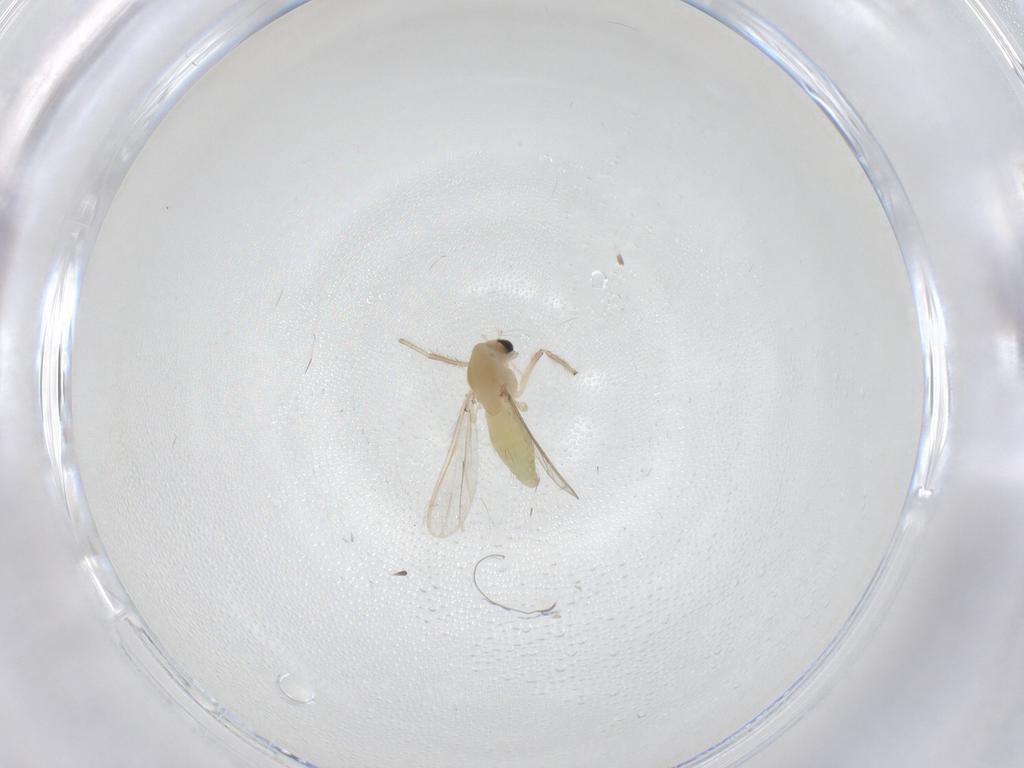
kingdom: Animalia
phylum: Arthropoda
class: Insecta
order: Diptera
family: Chironomidae
